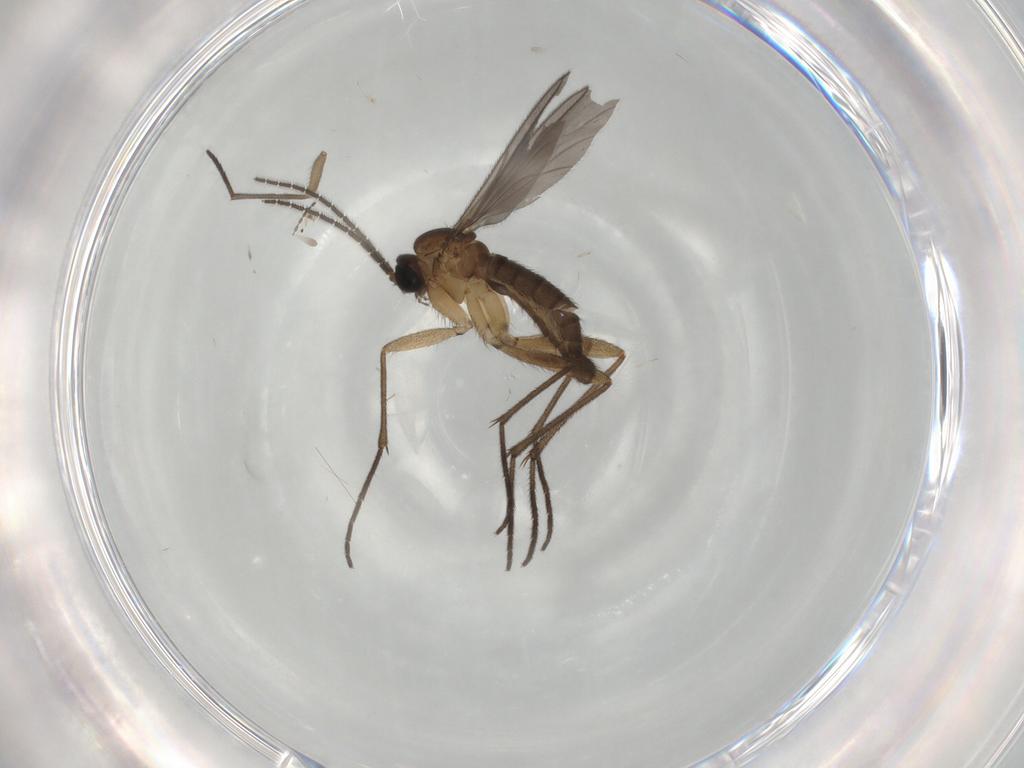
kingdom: Animalia
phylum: Arthropoda
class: Insecta
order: Diptera
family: Sciaridae
